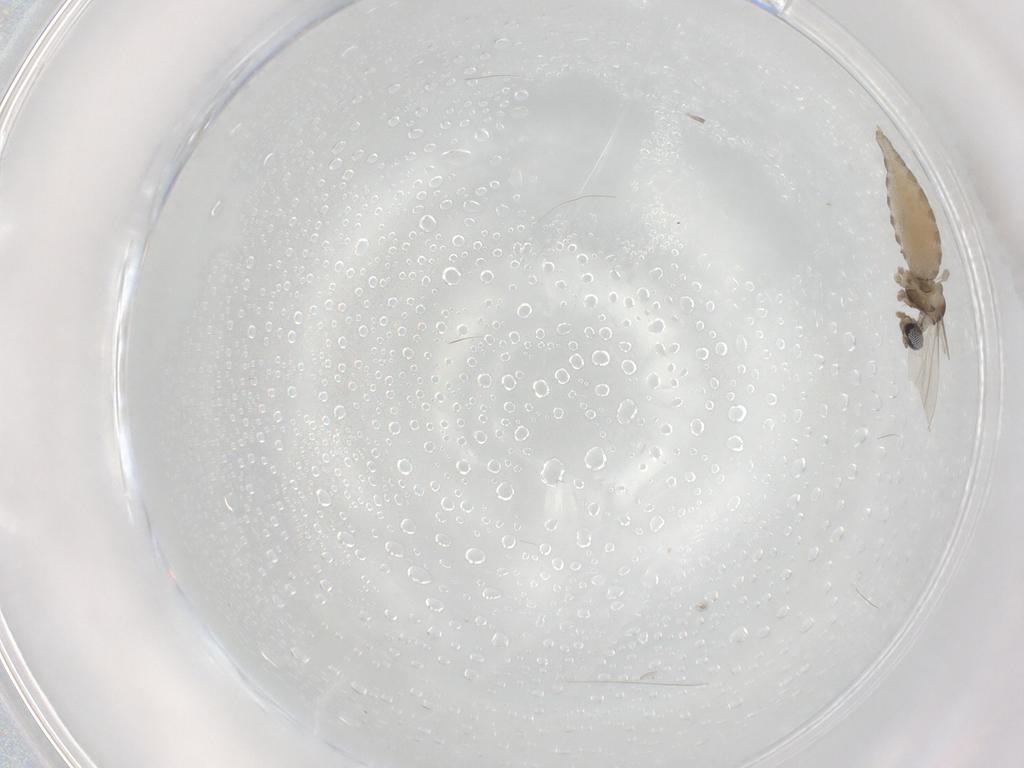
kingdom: Animalia
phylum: Arthropoda
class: Insecta
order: Diptera
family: Cecidomyiidae
